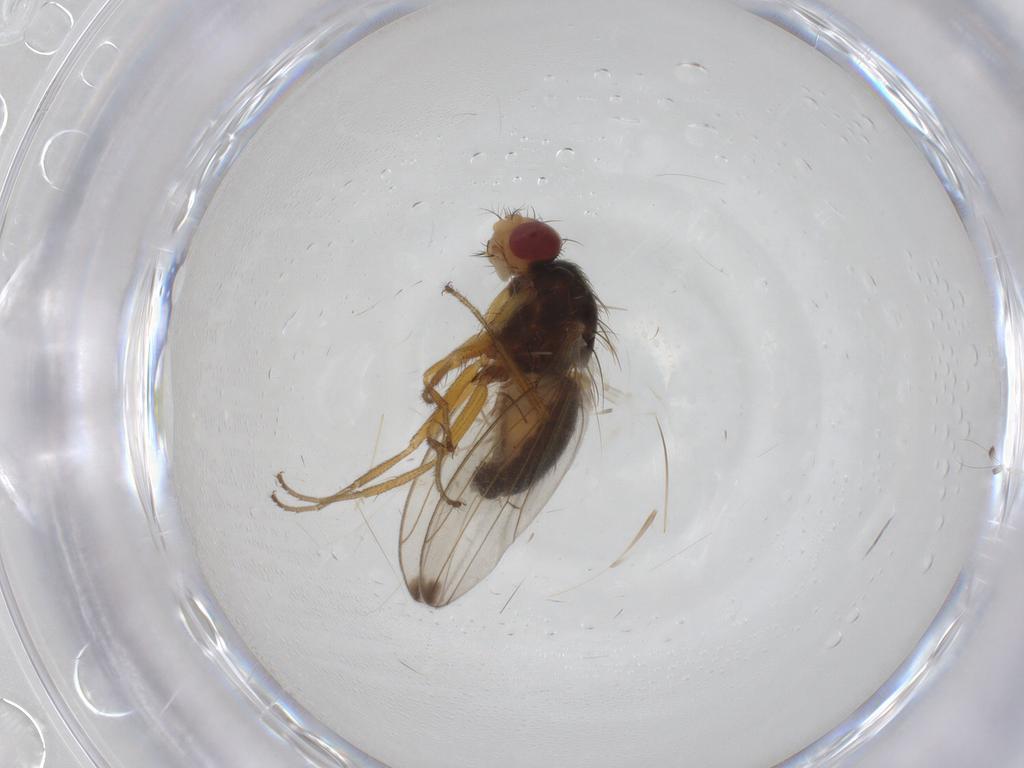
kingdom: Animalia
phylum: Arthropoda
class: Insecta
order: Diptera
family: Drosophilidae
